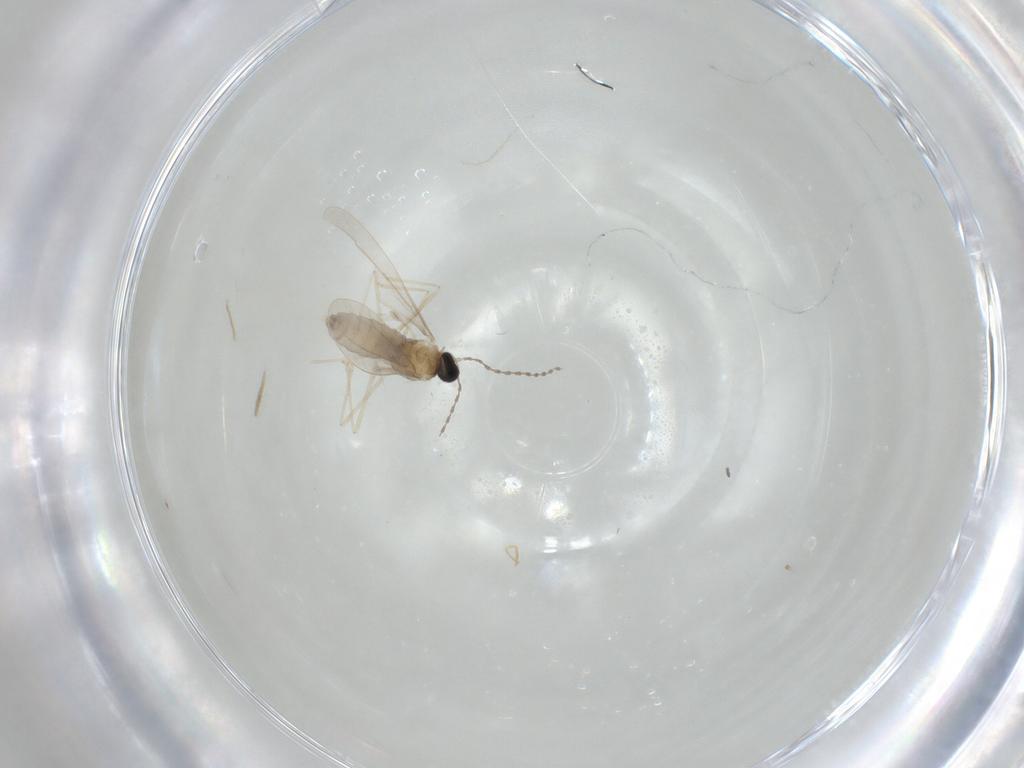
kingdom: Animalia
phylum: Arthropoda
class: Insecta
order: Diptera
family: Cecidomyiidae
